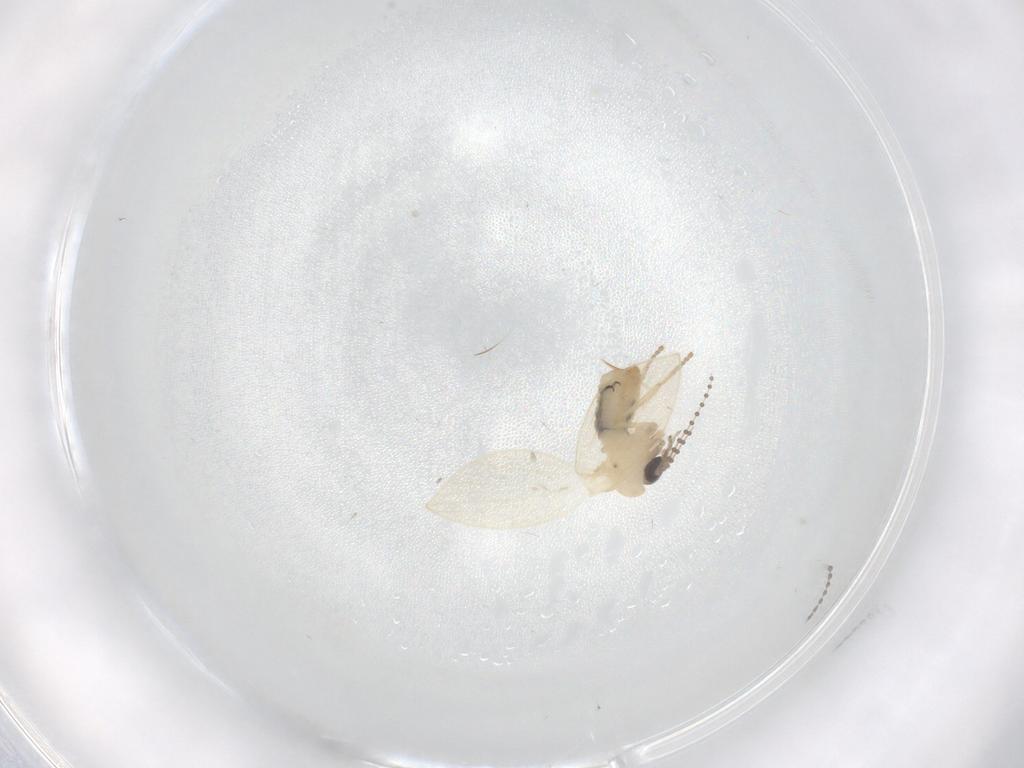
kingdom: Animalia
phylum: Arthropoda
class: Insecta
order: Diptera
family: Psychodidae
